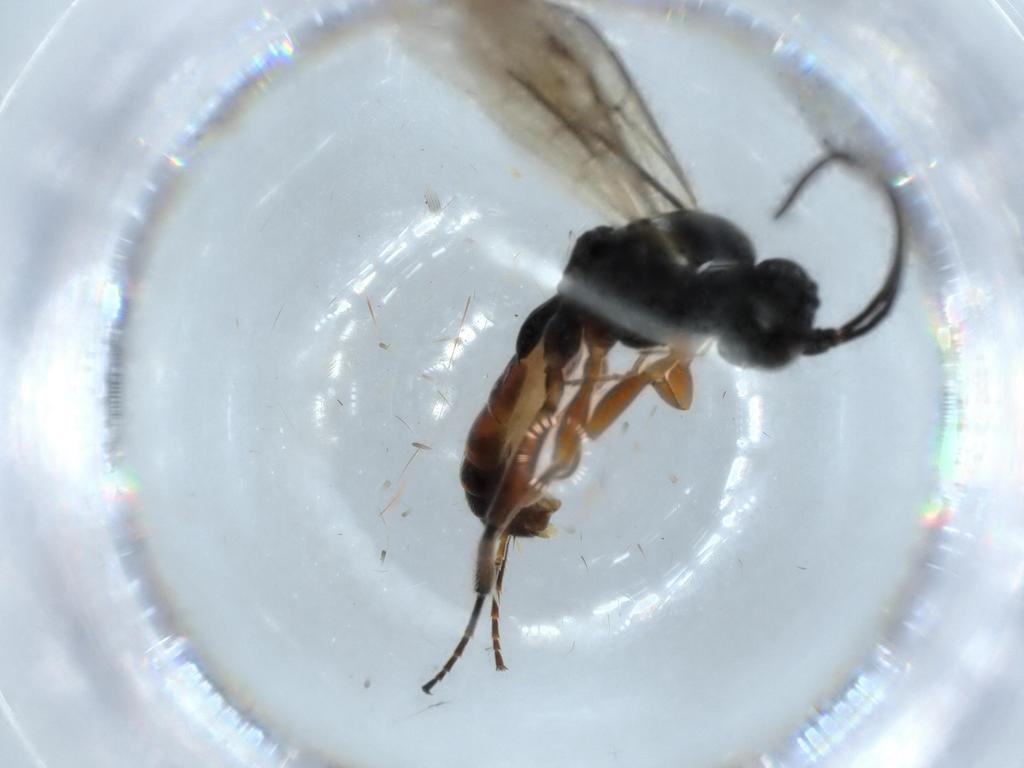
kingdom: Animalia
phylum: Arthropoda
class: Insecta
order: Hymenoptera
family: Ichneumonidae
